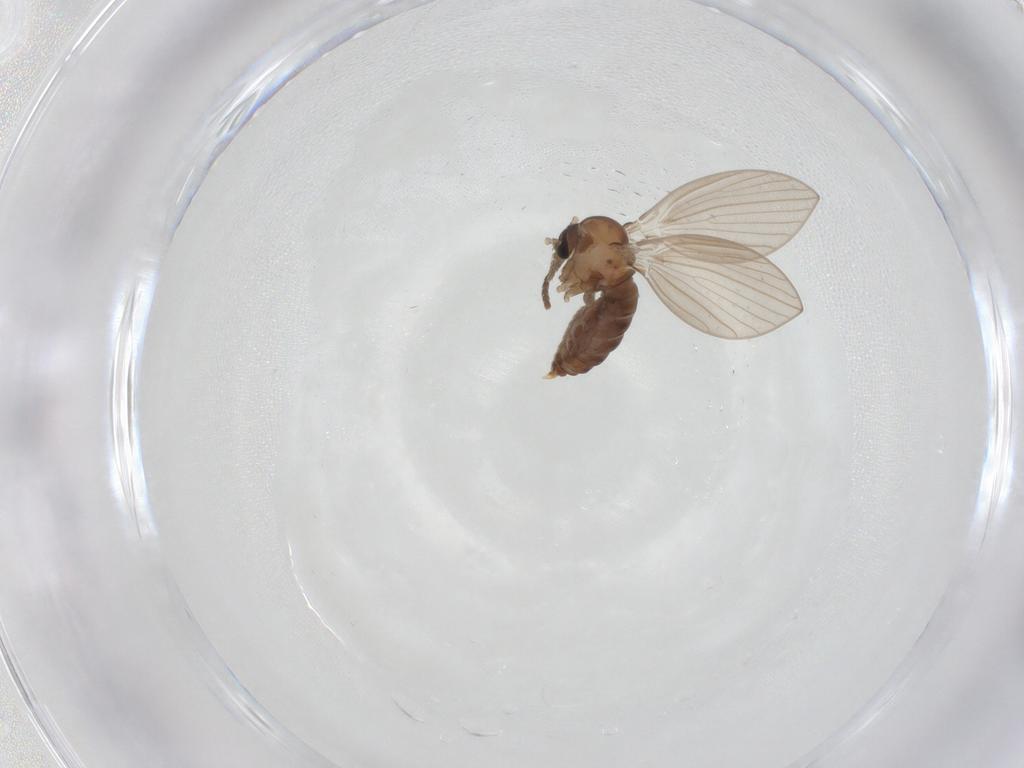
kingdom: Animalia
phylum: Arthropoda
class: Insecta
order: Diptera
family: Psychodidae
